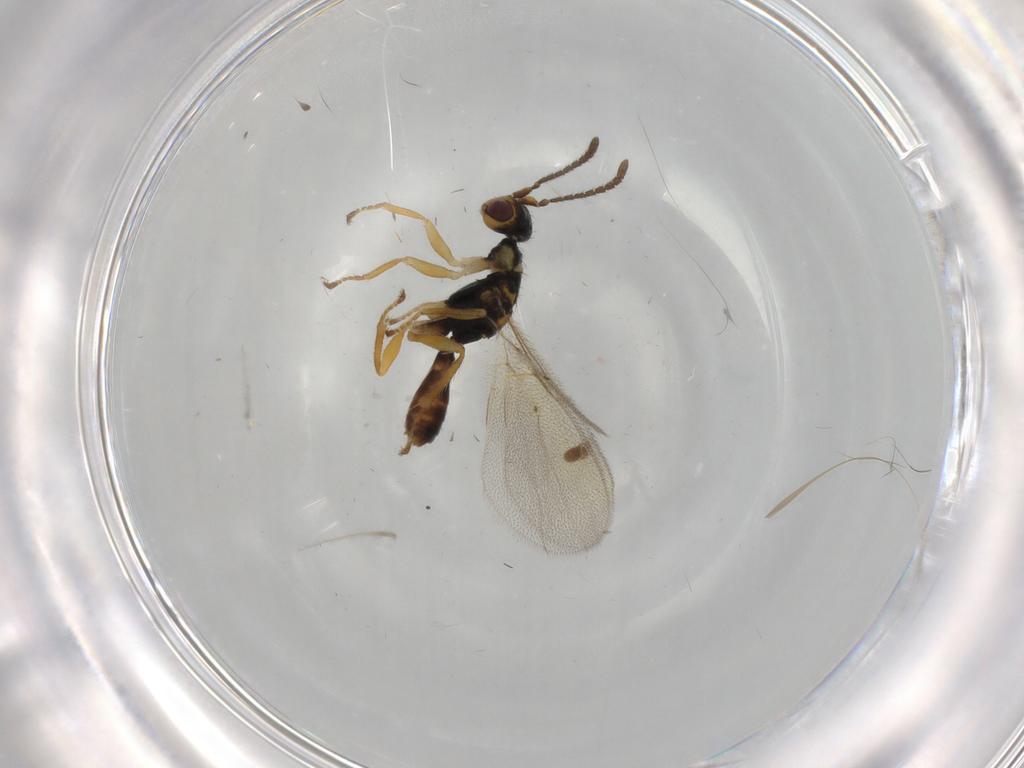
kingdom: Animalia
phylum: Arthropoda
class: Insecta
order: Hymenoptera
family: Megastigmidae
